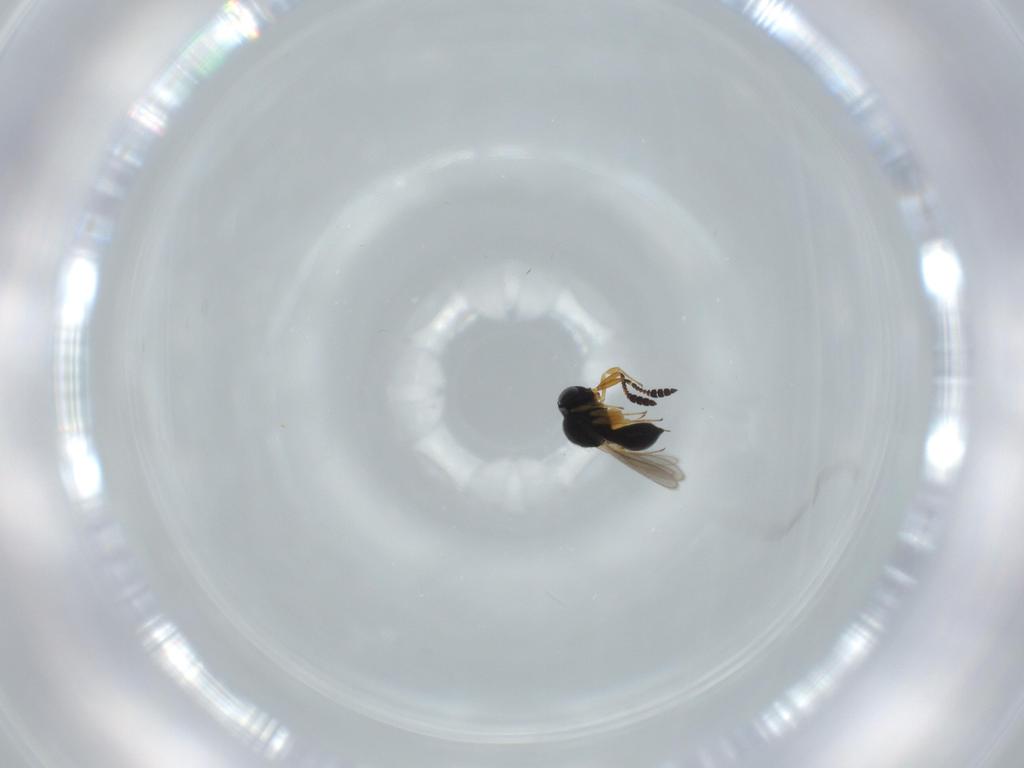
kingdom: Animalia
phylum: Arthropoda
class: Insecta
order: Hymenoptera
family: Scelionidae
